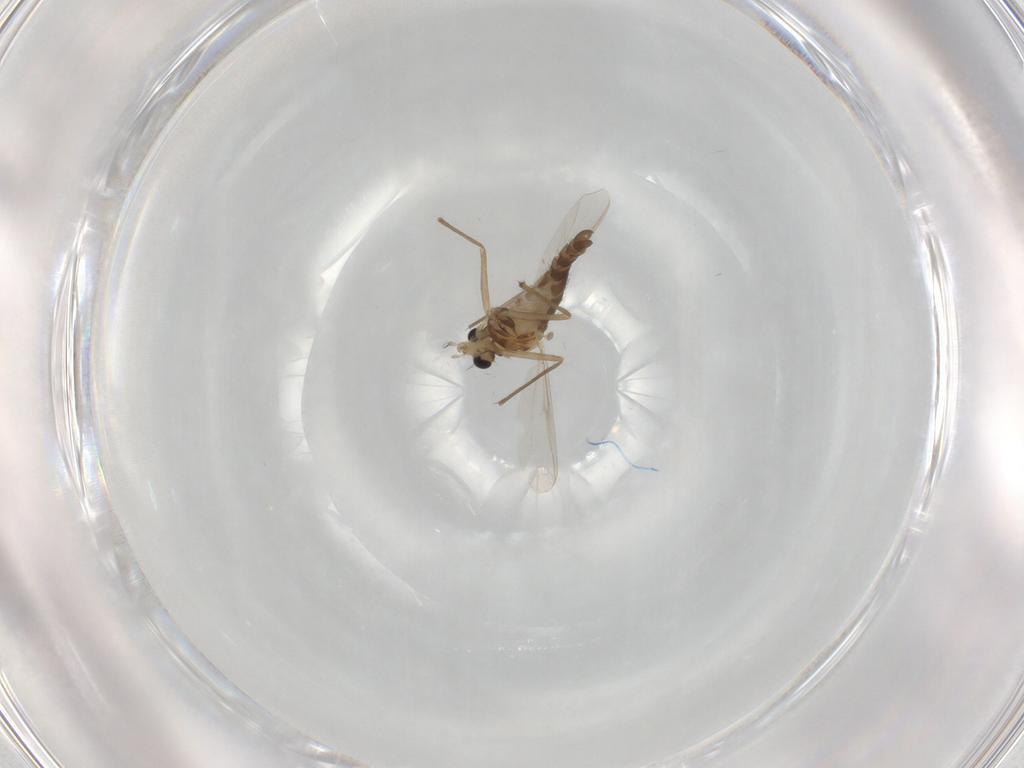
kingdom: Animalia
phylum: Arthropoda
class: Insecta
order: Diptera
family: Chironomidae
